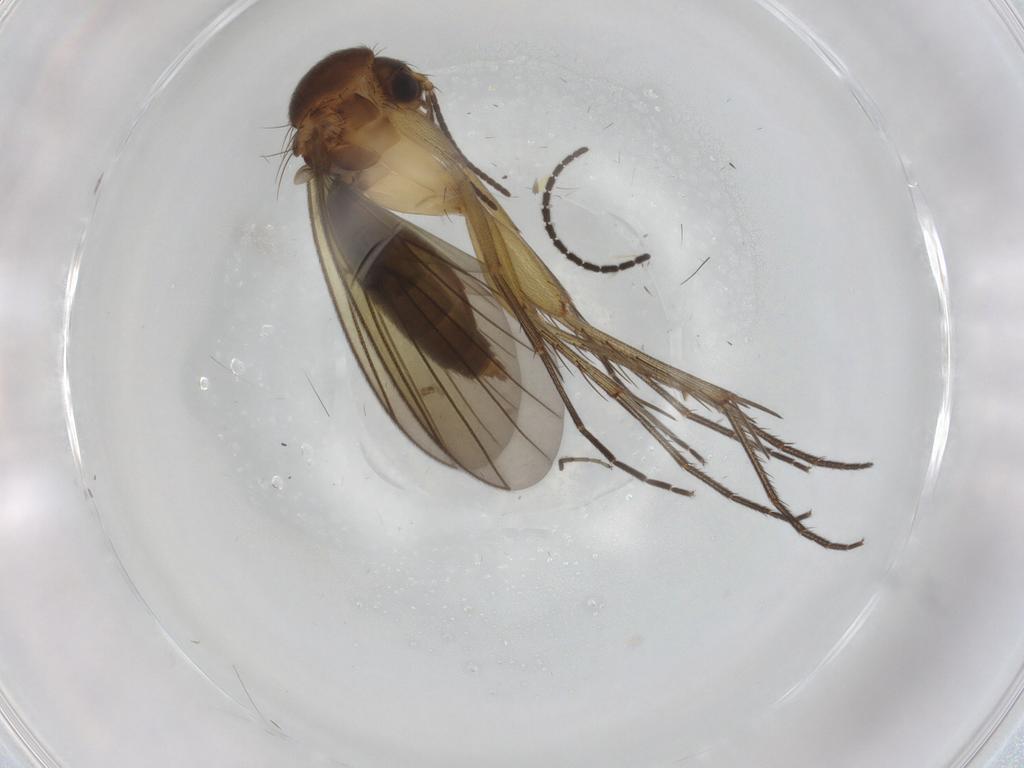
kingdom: Animalia
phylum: Arthropoda
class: Insecta
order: Diptera
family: Mycetophilidae
